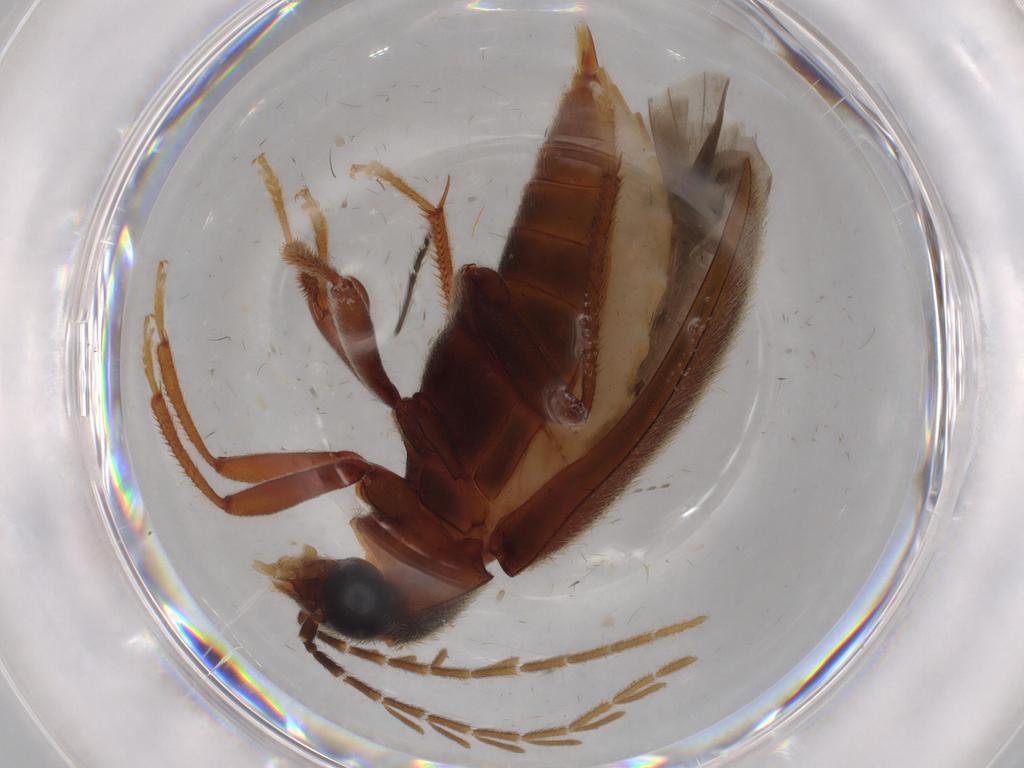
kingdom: Animalia
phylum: Arthropoda
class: Insecta
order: Coleoptera
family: Ptilodactylidae
